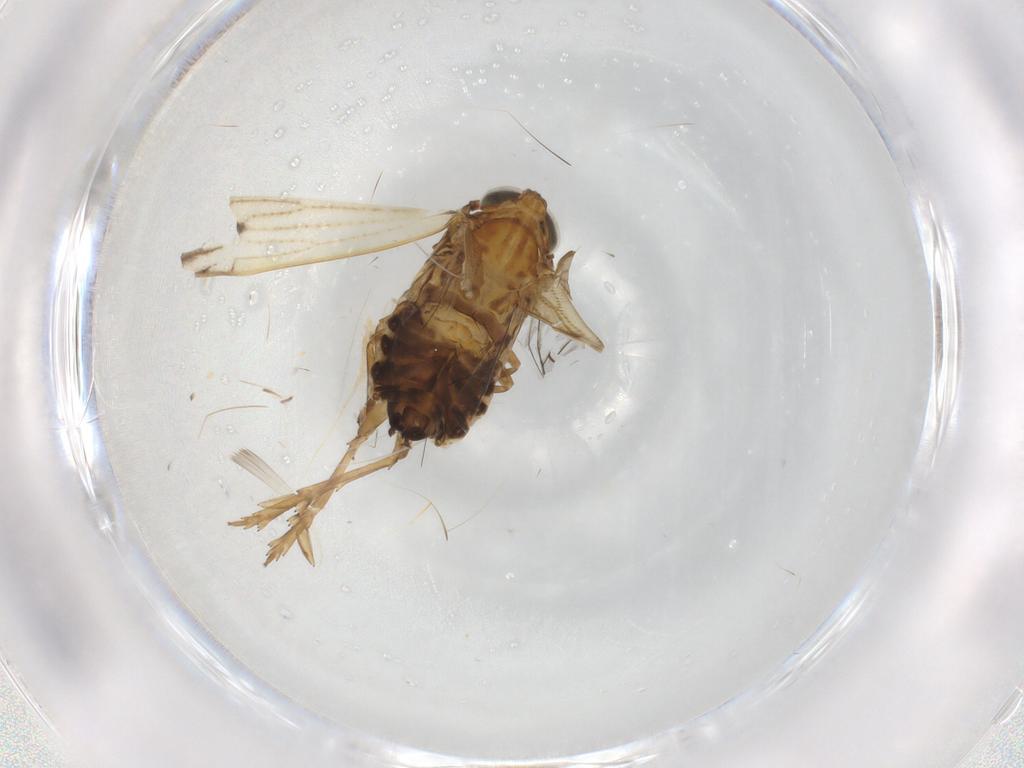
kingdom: Animalia
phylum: Arthropoda
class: Insecta
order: Hemiptera
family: Delphacidae
